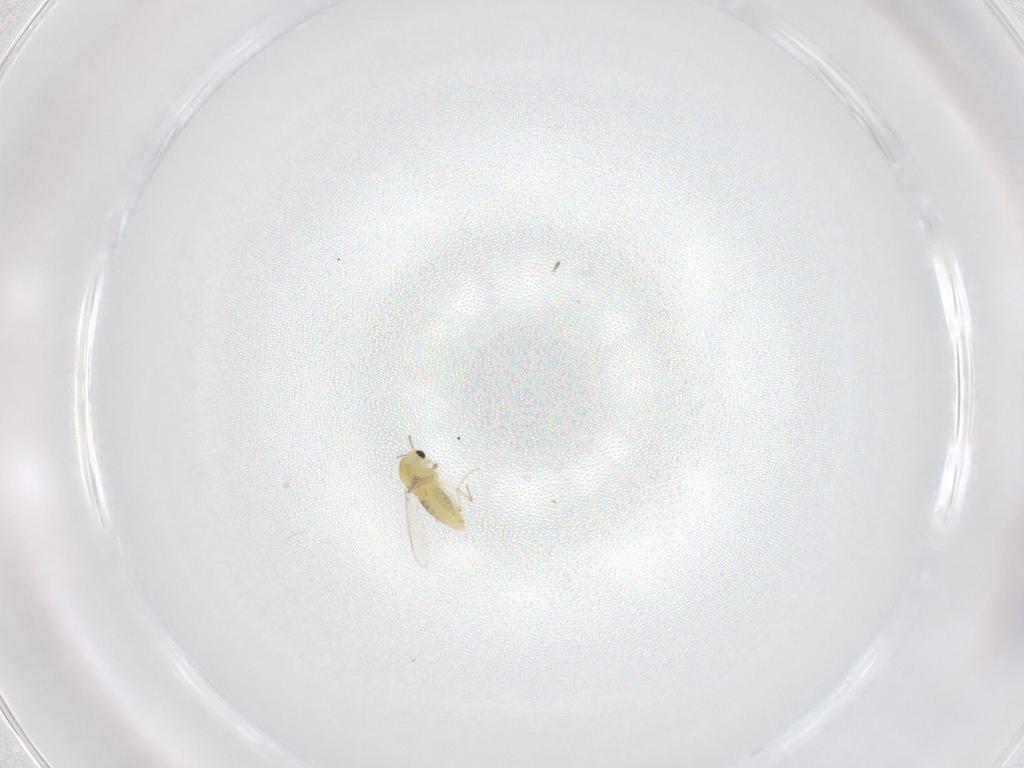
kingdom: Animalia
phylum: Arthropoda
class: Insecta
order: Diptera
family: Chironomidae
